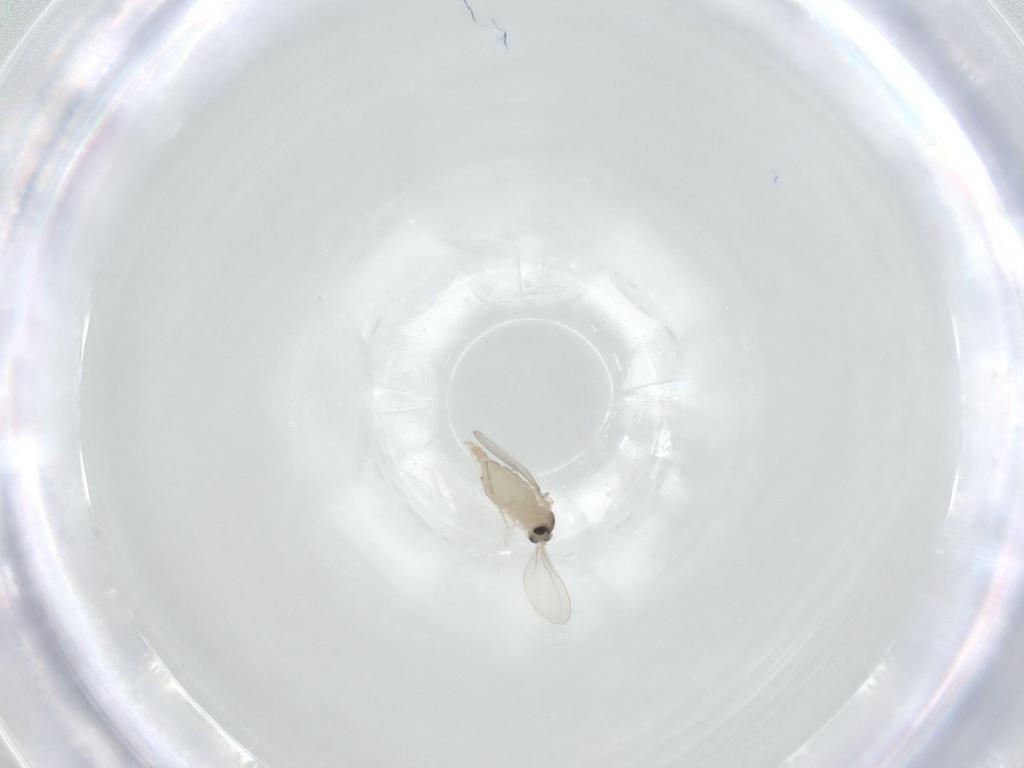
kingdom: Animalia
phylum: Arthropoda
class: Insecta
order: Diptera
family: Cecidomyiidae
